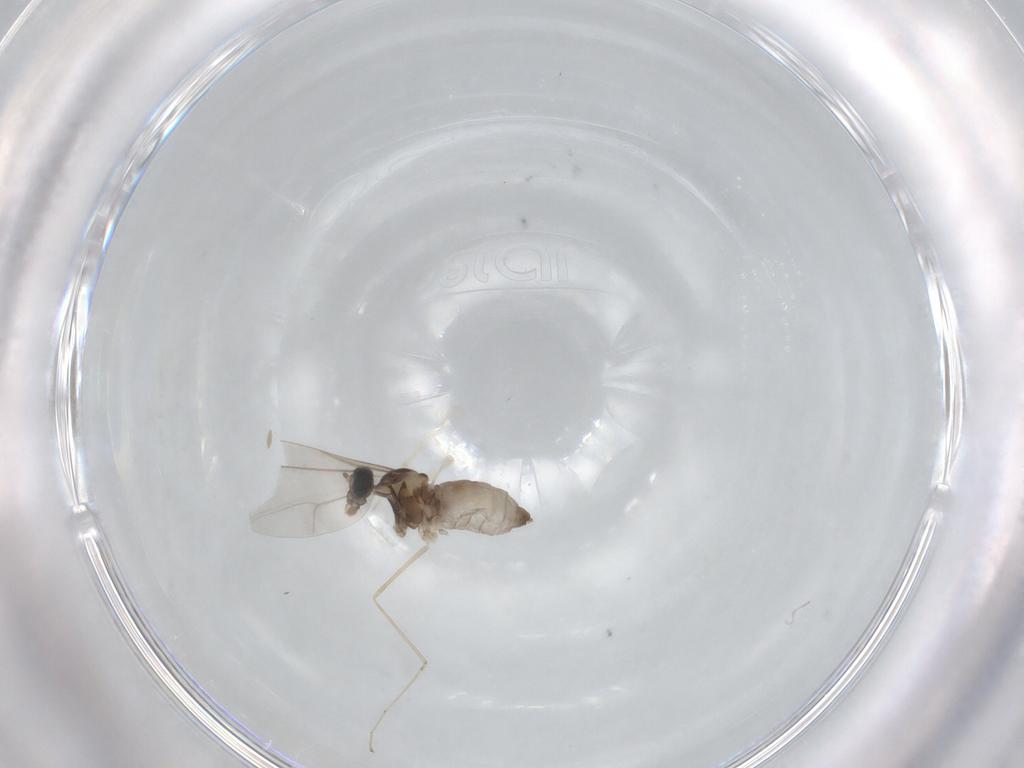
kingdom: Animalia
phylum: Arthropoda
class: Insecta
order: Diptera
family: Cecidomyiidae
